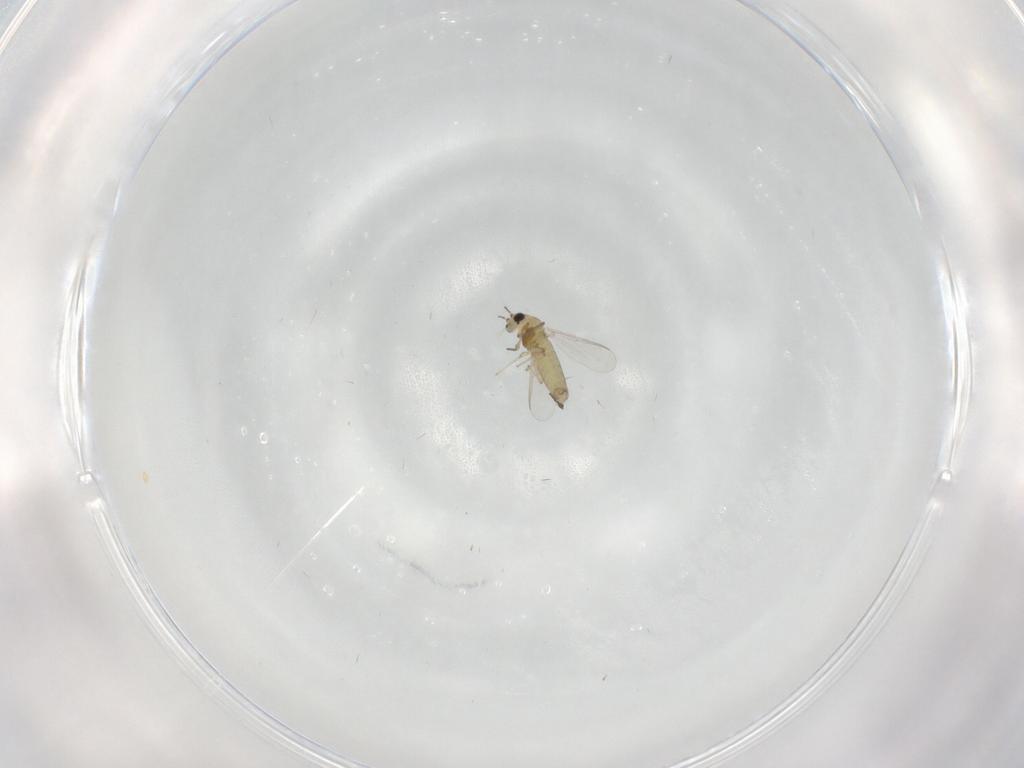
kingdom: Animalia
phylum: Arthropoda
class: Insecta
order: Diptera
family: Chironomidae
